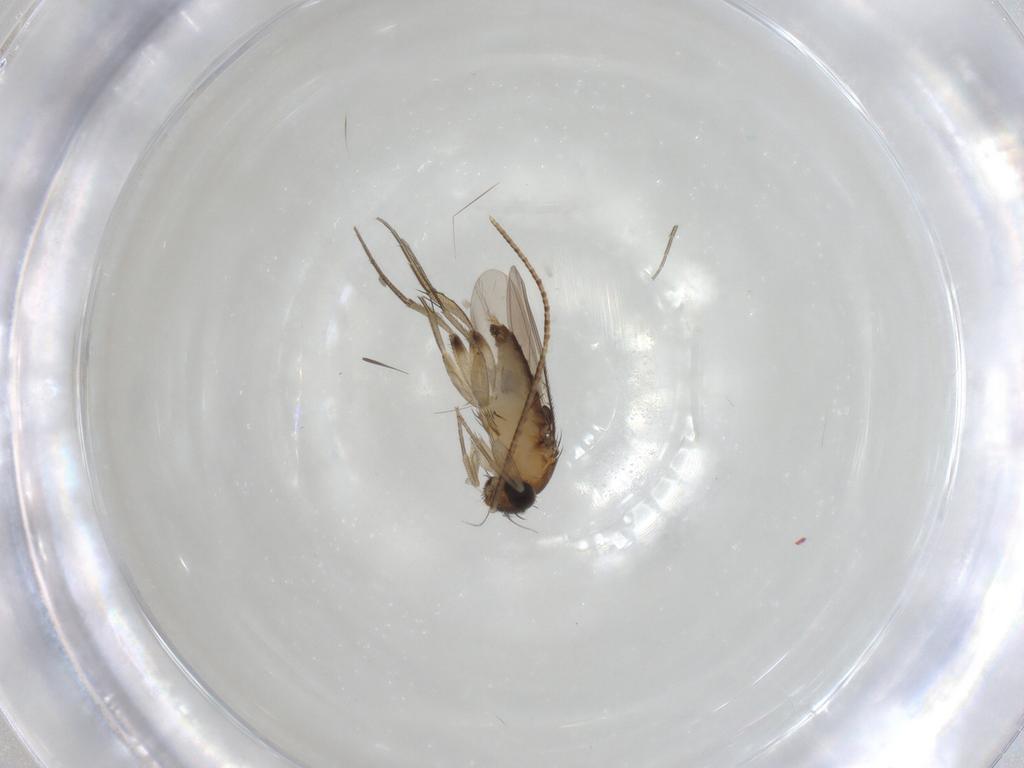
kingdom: Animalia
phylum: Arthropoda
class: Insecta
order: Diptera
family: Phoridae
